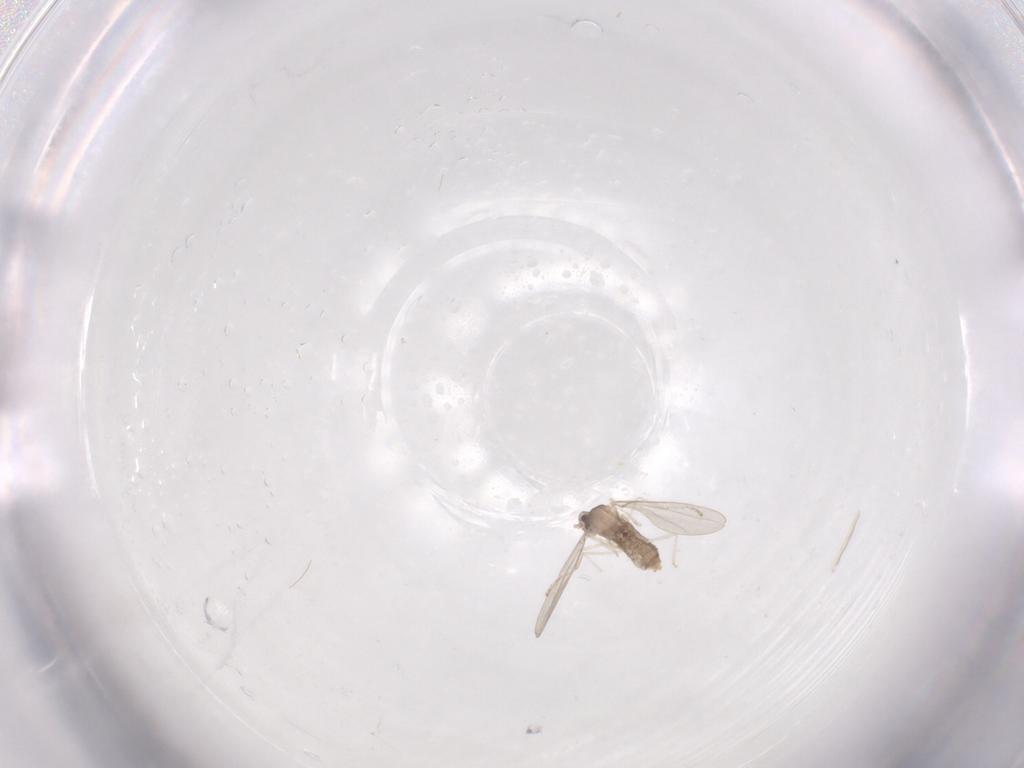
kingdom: Animalia
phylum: Arthropoda
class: Insecta
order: Diptera
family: Chironomidae
